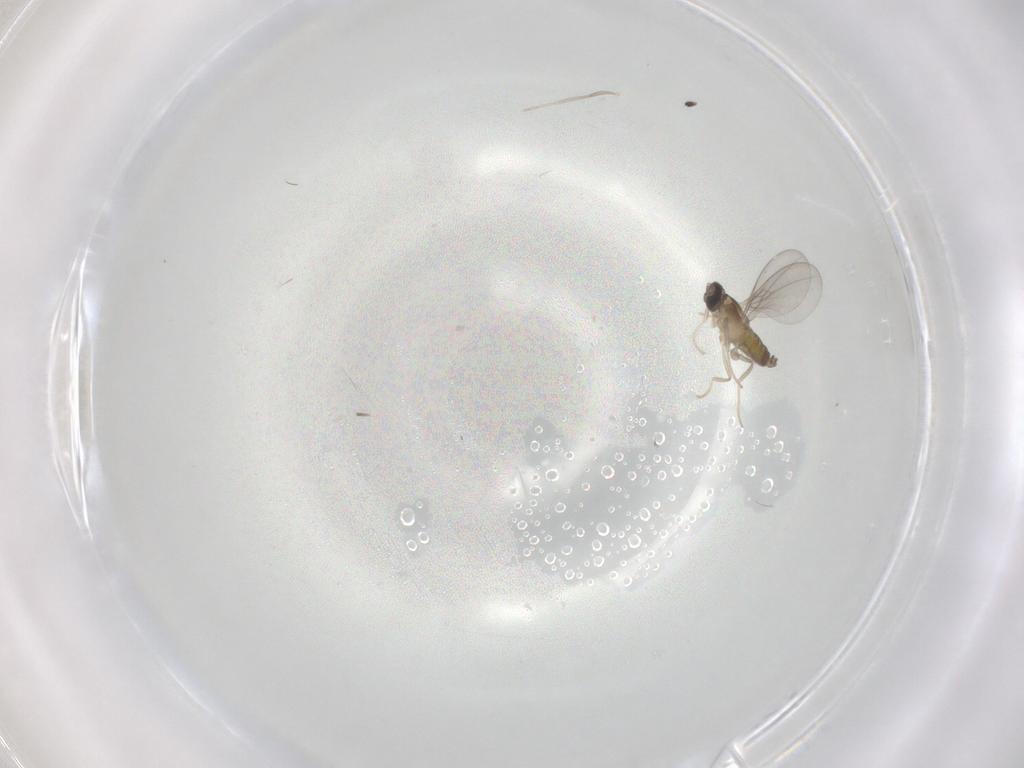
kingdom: Animalia
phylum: Arthropoda
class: Insecta
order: Diptera
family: Cecidomyiidae
